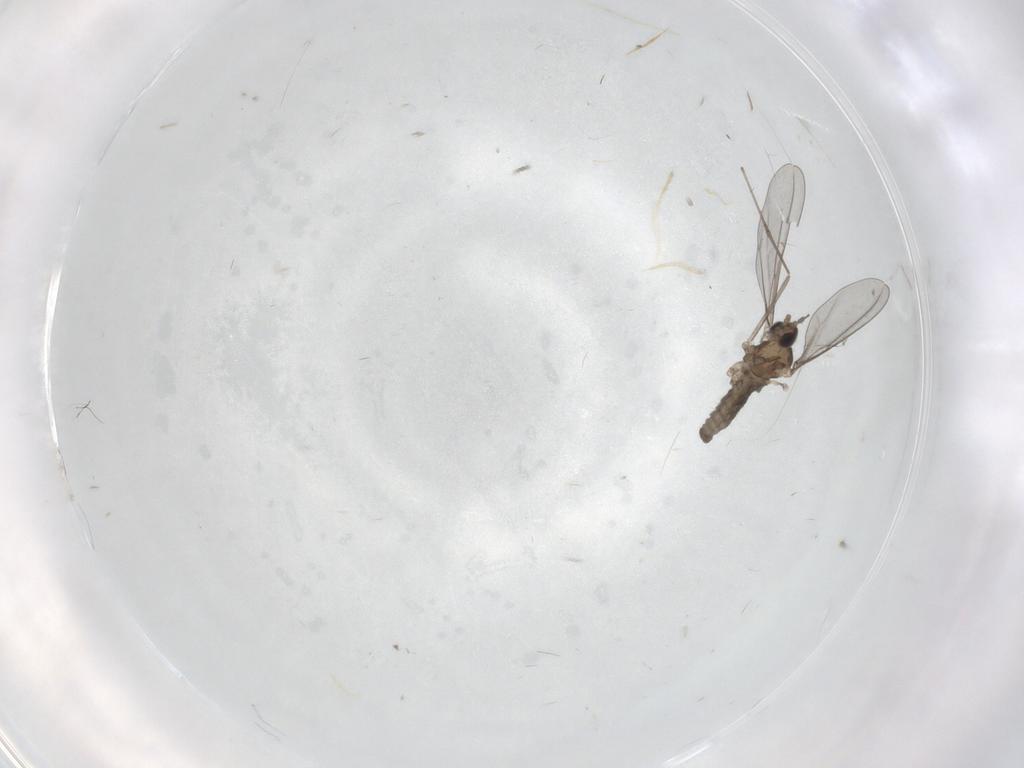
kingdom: Animalia
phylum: Arthropoda
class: Insecta
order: Diptera
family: Cecidomyiidae
